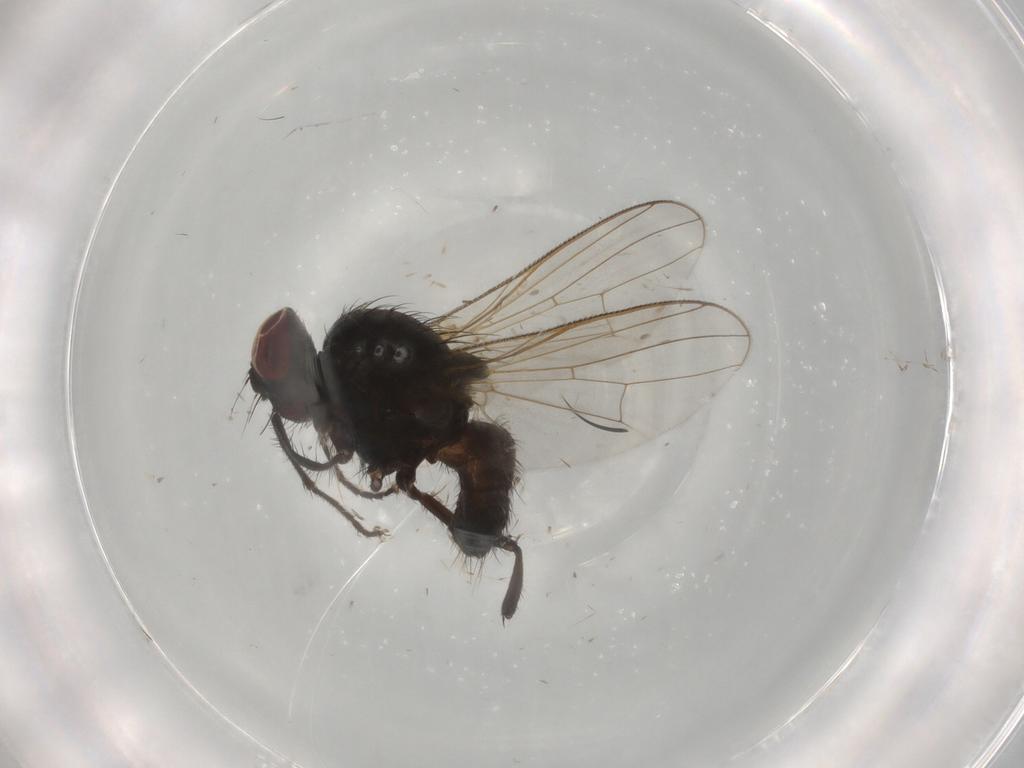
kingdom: Animalia
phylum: Arthropoda
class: Insecta
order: Diptera
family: Muscidae
